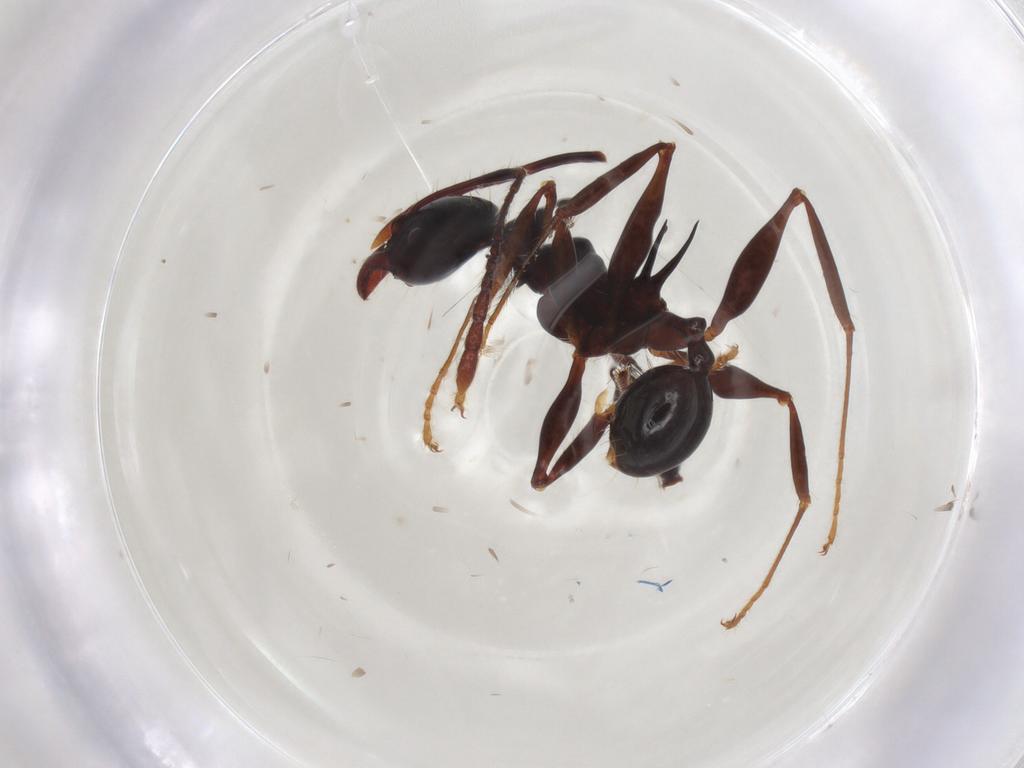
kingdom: Animalia
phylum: Arthropoda
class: Insecta
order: Hymenoptera
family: Formicidae
